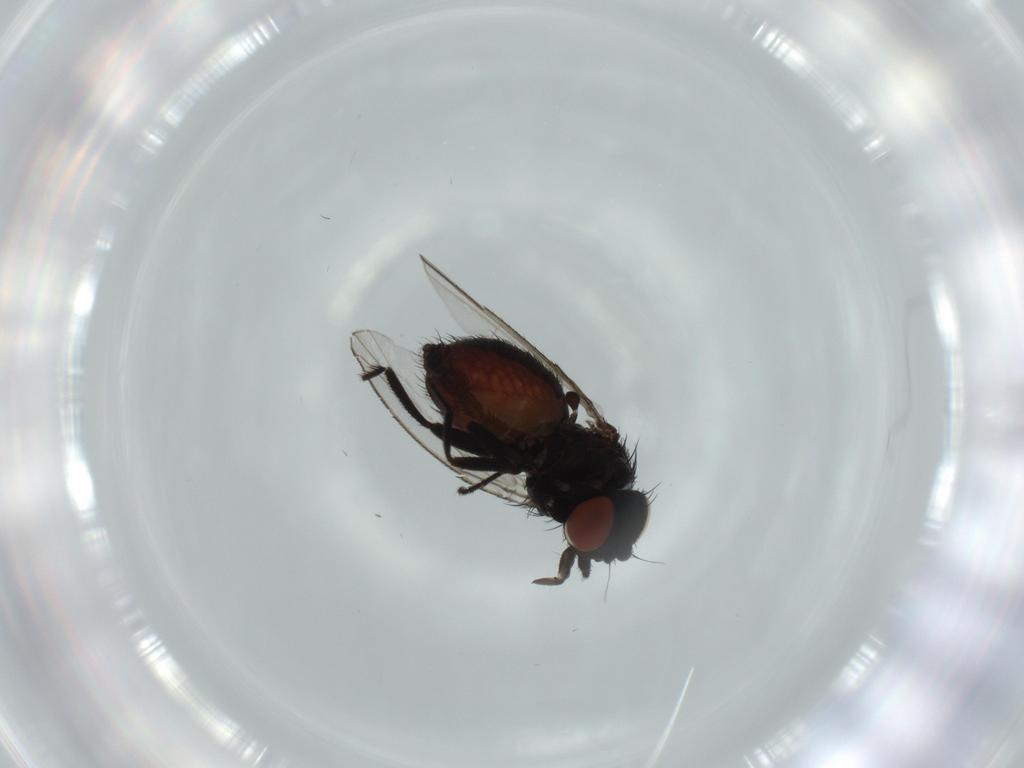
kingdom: Animalia
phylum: Arthropoda
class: Insecta
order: Diptera
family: Milichiidae
